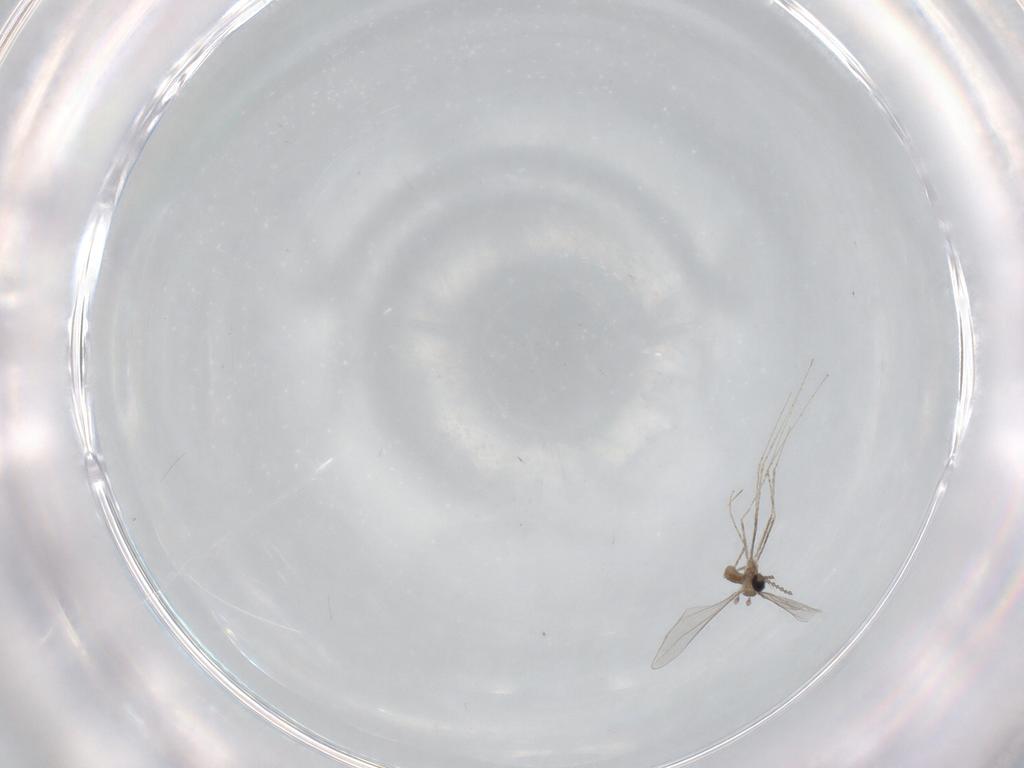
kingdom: Animalia
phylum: Arthropoda
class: Insecta
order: Diptera
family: Cecidomyiidae
